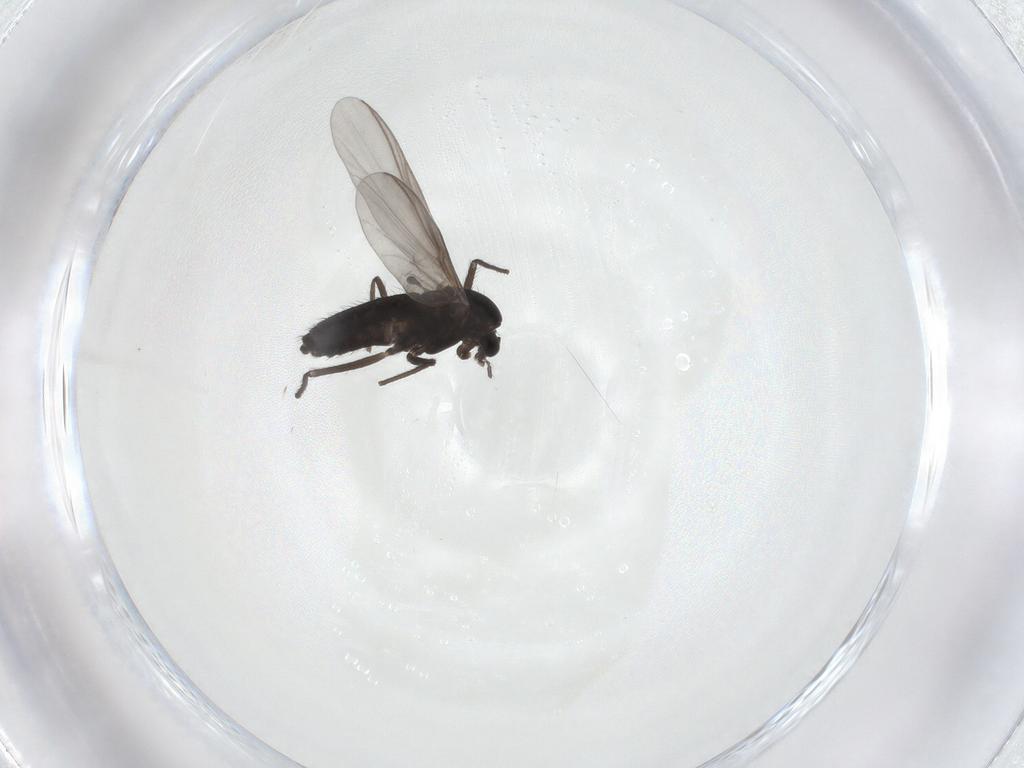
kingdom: Animalia
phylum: Arthropoda
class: Insecta
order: Diptera
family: Chironomidae
